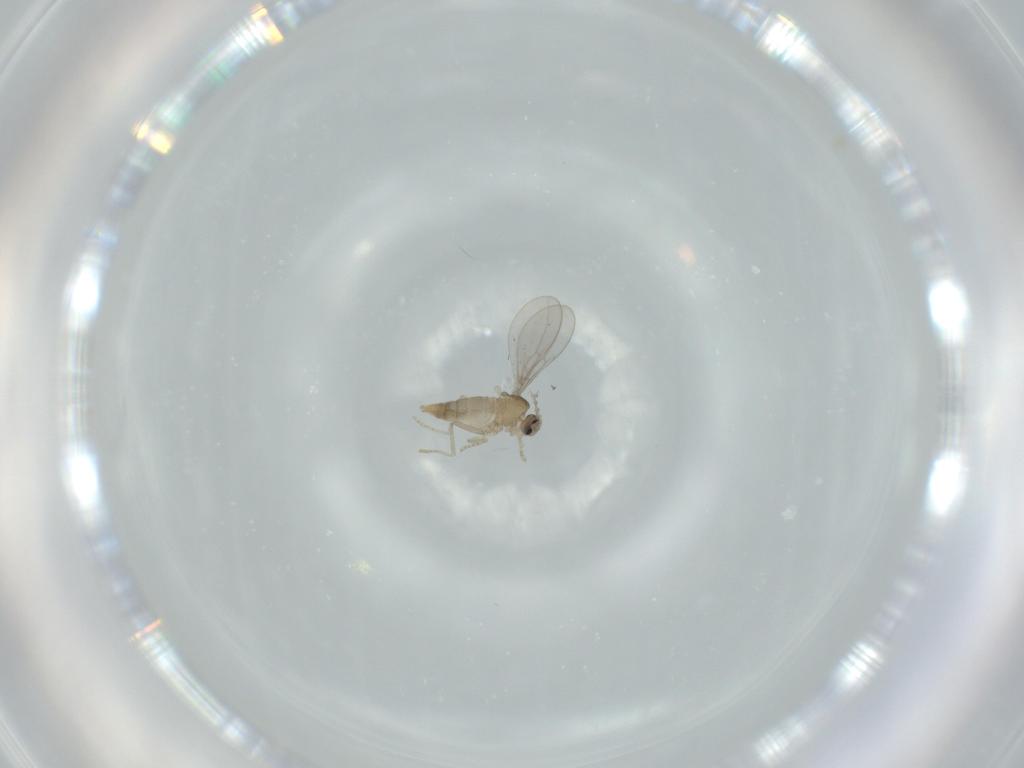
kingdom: Animalia
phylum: Arthropoda
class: Insecta
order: Diptera
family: Cecidomyiidae
